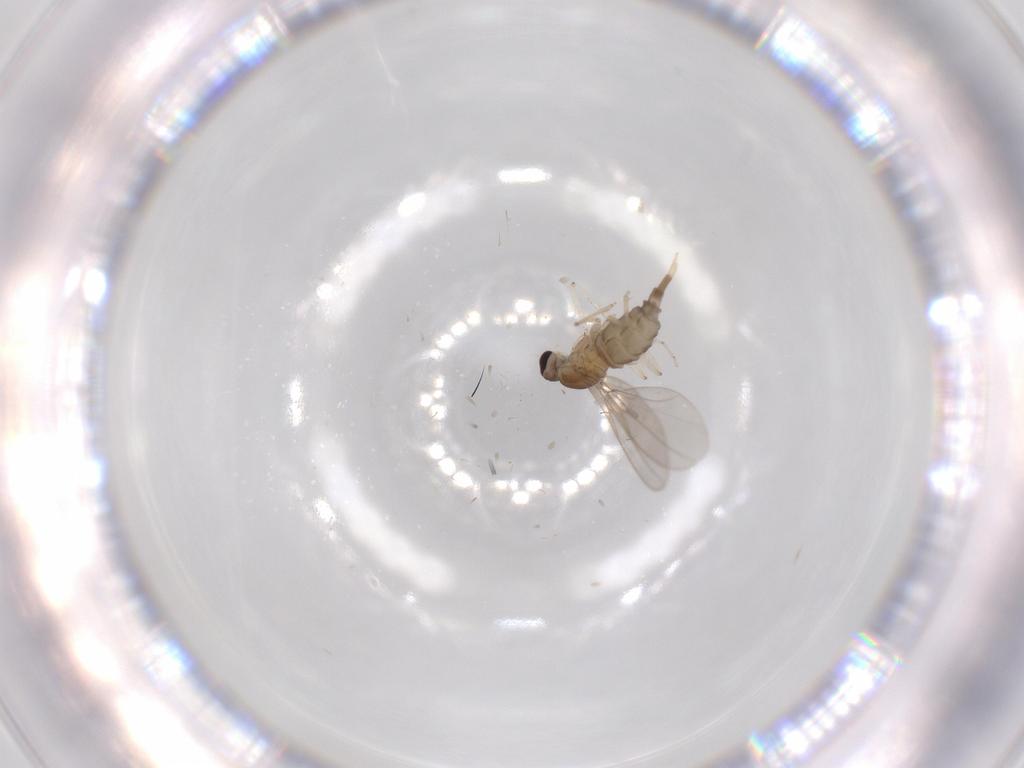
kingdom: Animalia
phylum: Arthropoda
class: Insecta
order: Diptera
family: Cecidomyiidae
